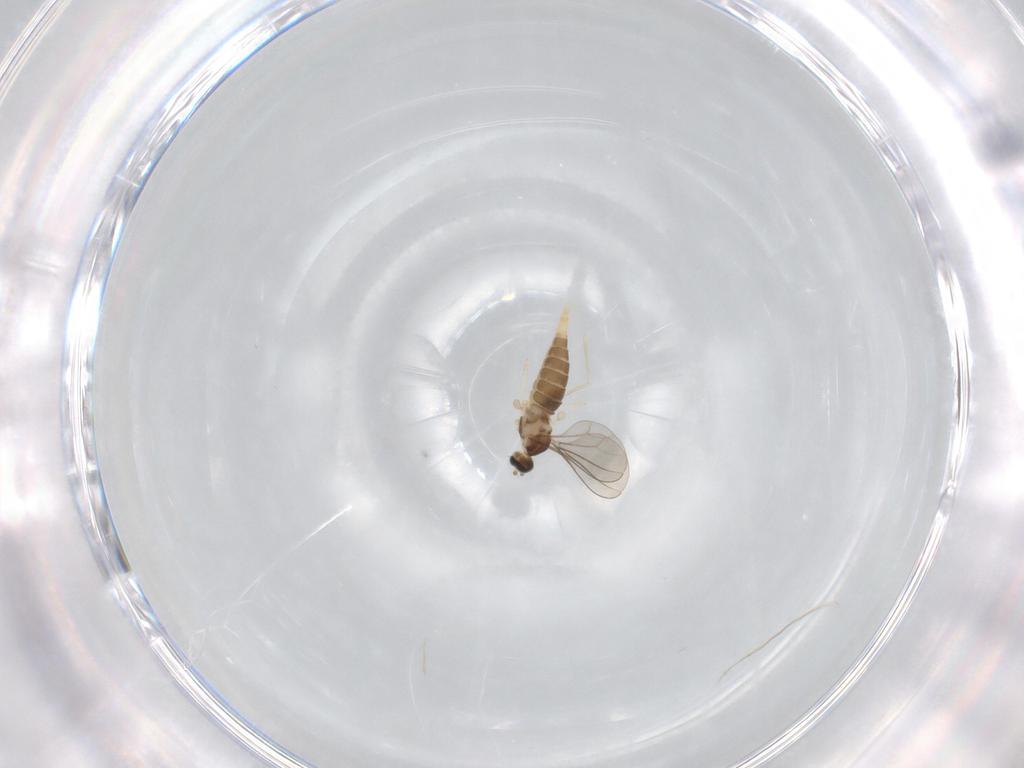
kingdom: Animalia
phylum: Arthropoda
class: Insecta
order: Diptera
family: Cecidomyiidae
